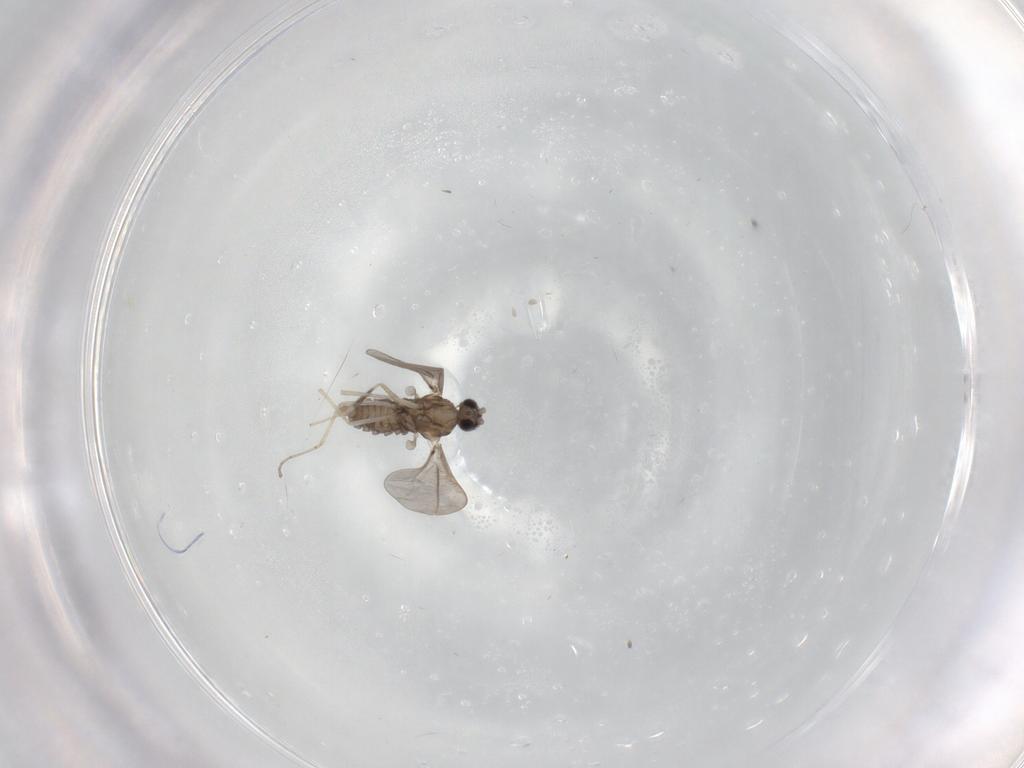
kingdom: Animalia
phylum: Arthropoda
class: Insecta
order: Diptera
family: Cecidomyiidae
